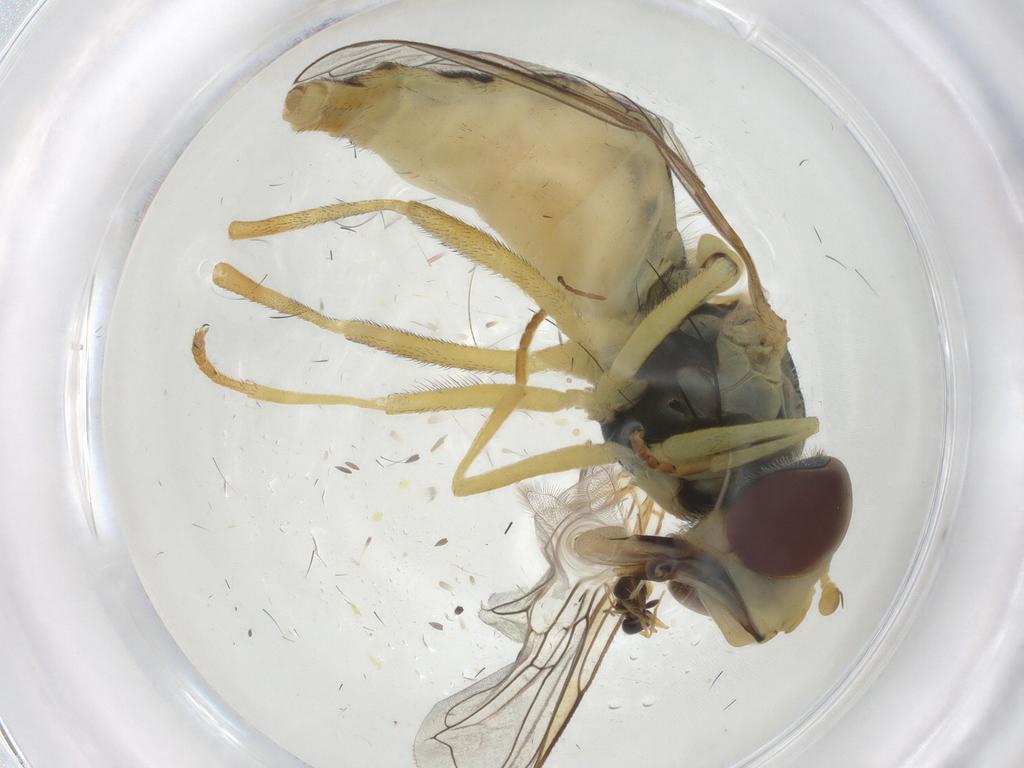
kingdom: Animalia
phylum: Arthropoda
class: Insecta
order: Diptera
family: Syrphidae
